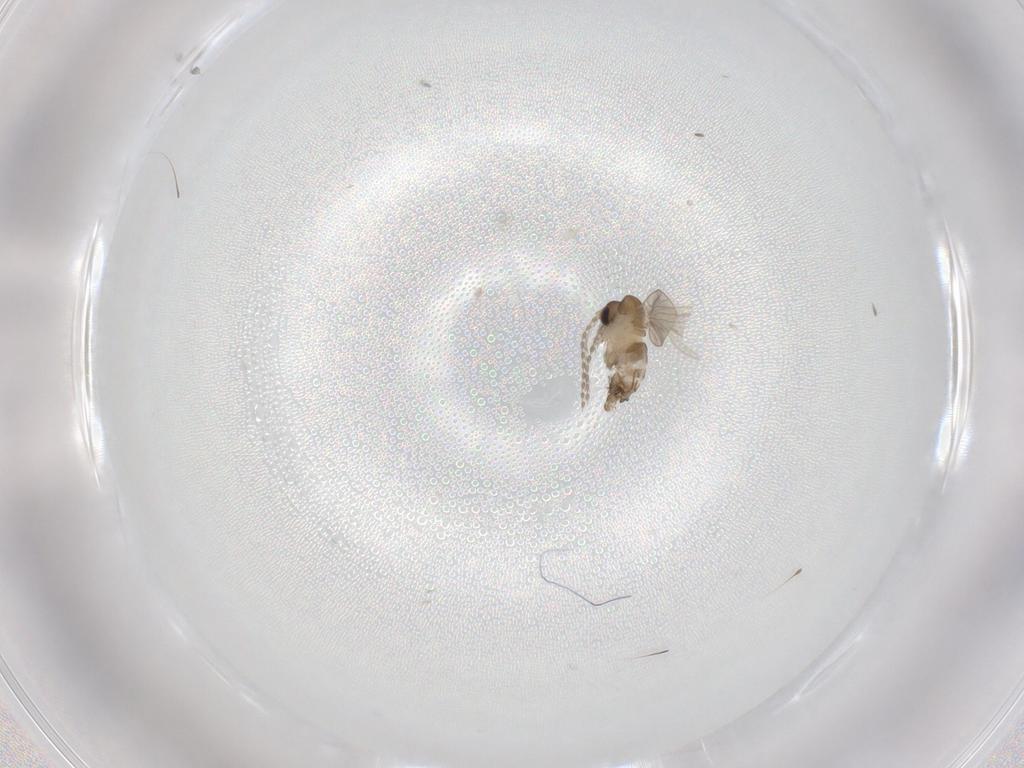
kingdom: Animalia
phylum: Arthropoda
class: Insecta
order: Diptera
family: Psychodidae
